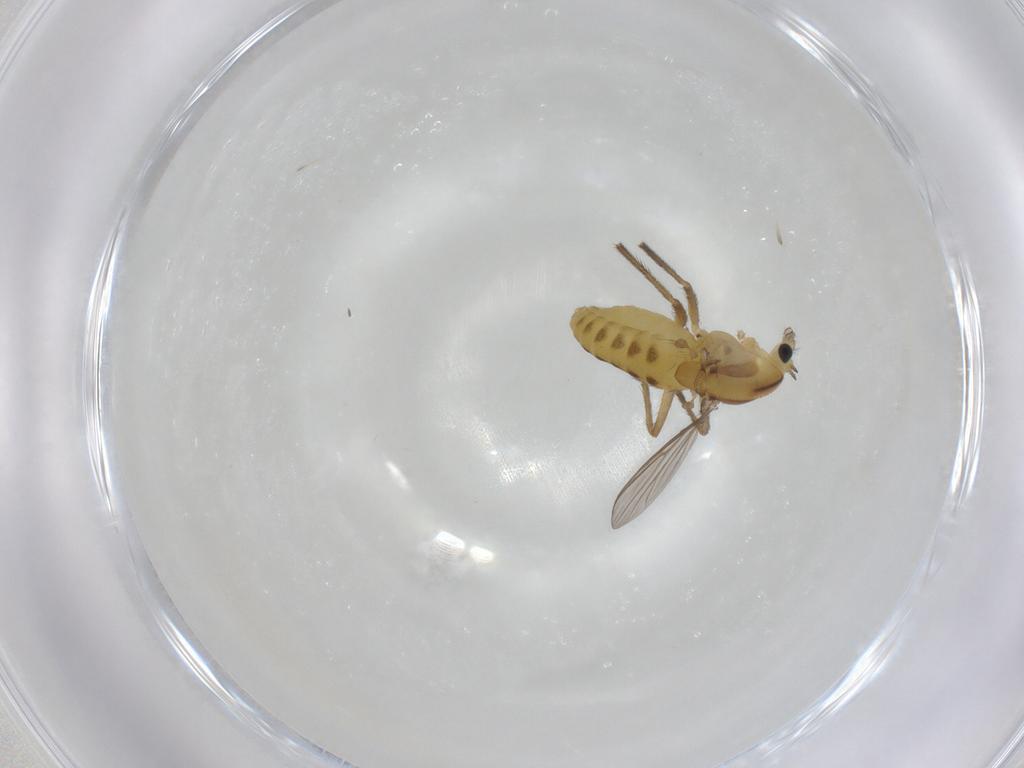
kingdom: Animalia
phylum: Arthropoda
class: Insecta
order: Diptera
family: Chironomidae
